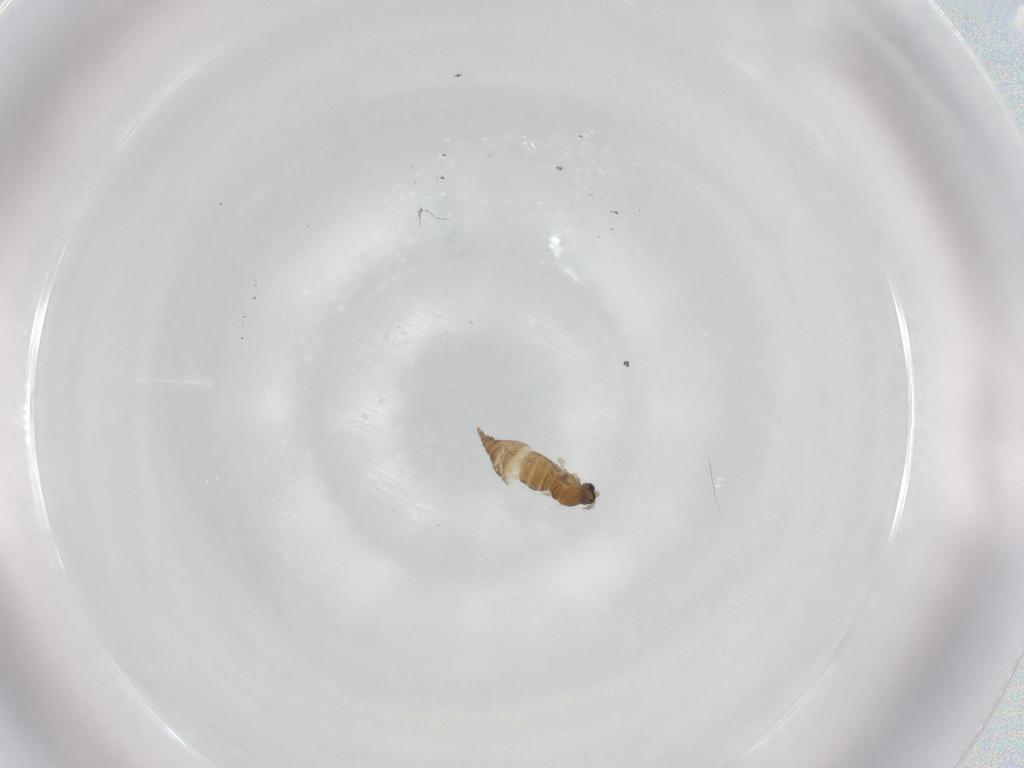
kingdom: Animalia
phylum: Arthropoda
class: Insecta
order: Diptera
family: Cecidomyiidae
